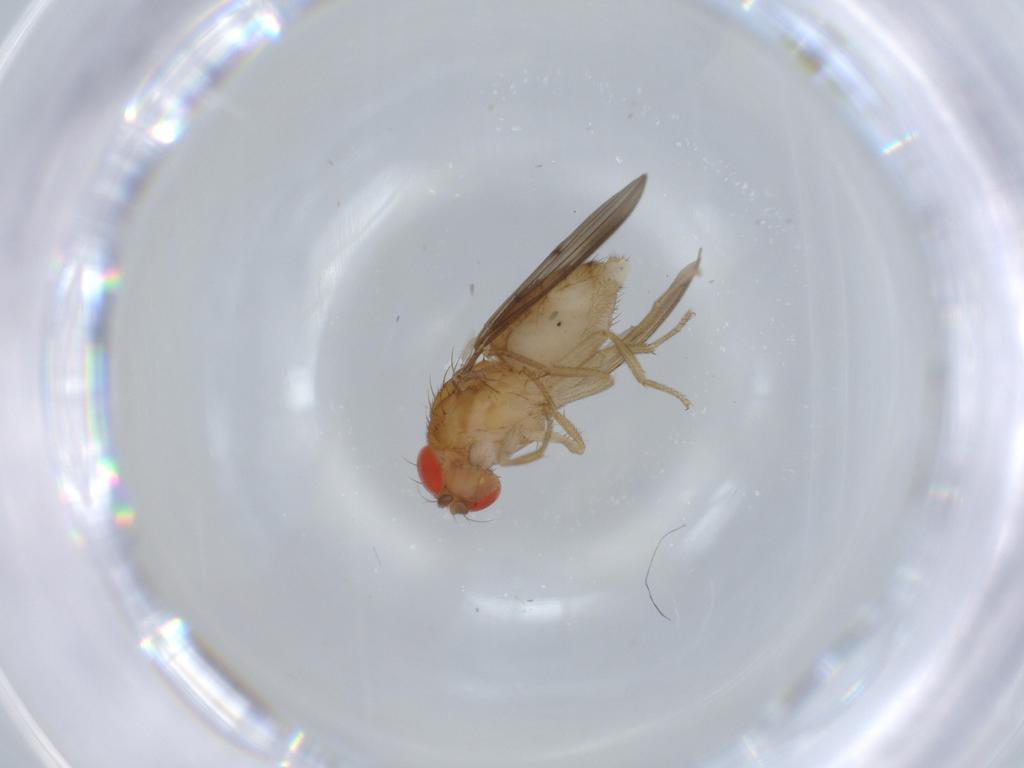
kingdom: Animalia
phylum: Arthropoda
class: Insecta
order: Diptera
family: Drosophilidae
